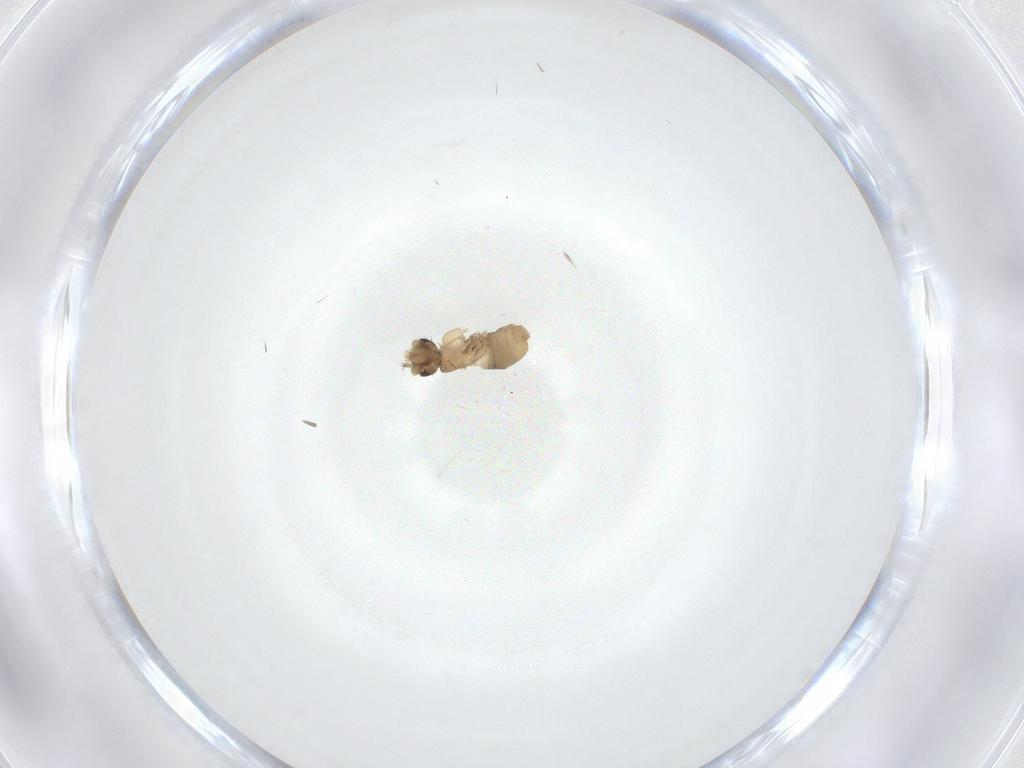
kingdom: Animalia
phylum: Arthropoda
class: Insecta
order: Diptera
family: Phoridae
